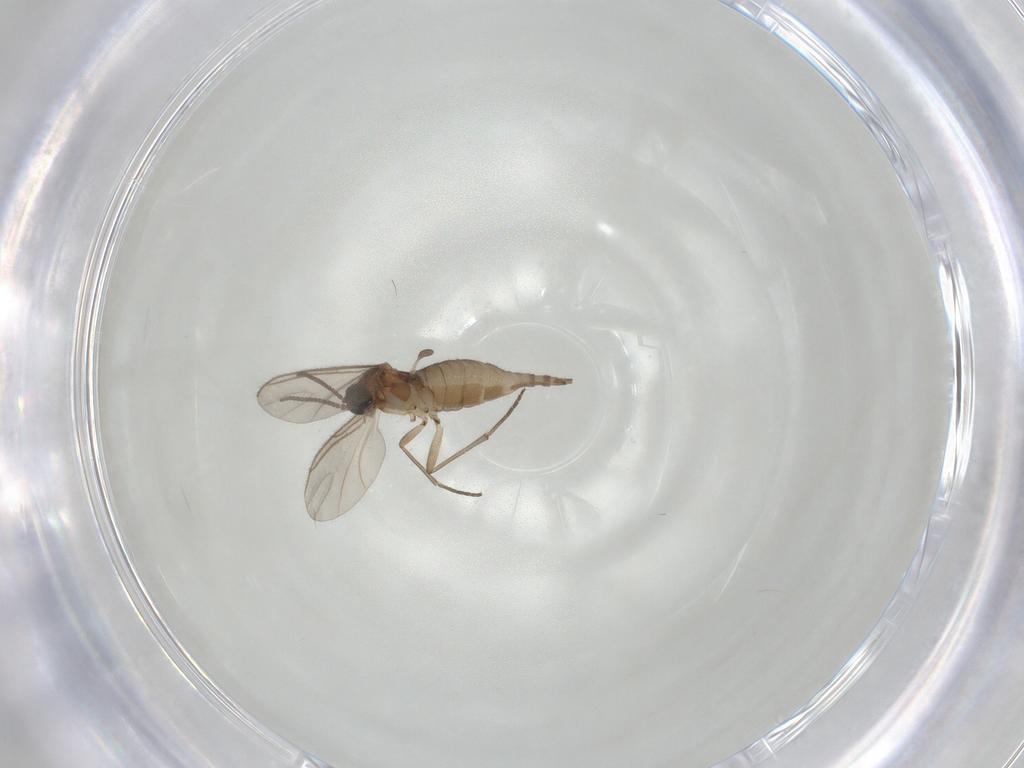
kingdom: Animalia
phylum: Arthropoda
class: Insecta
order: Diptera
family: Sciaridae
